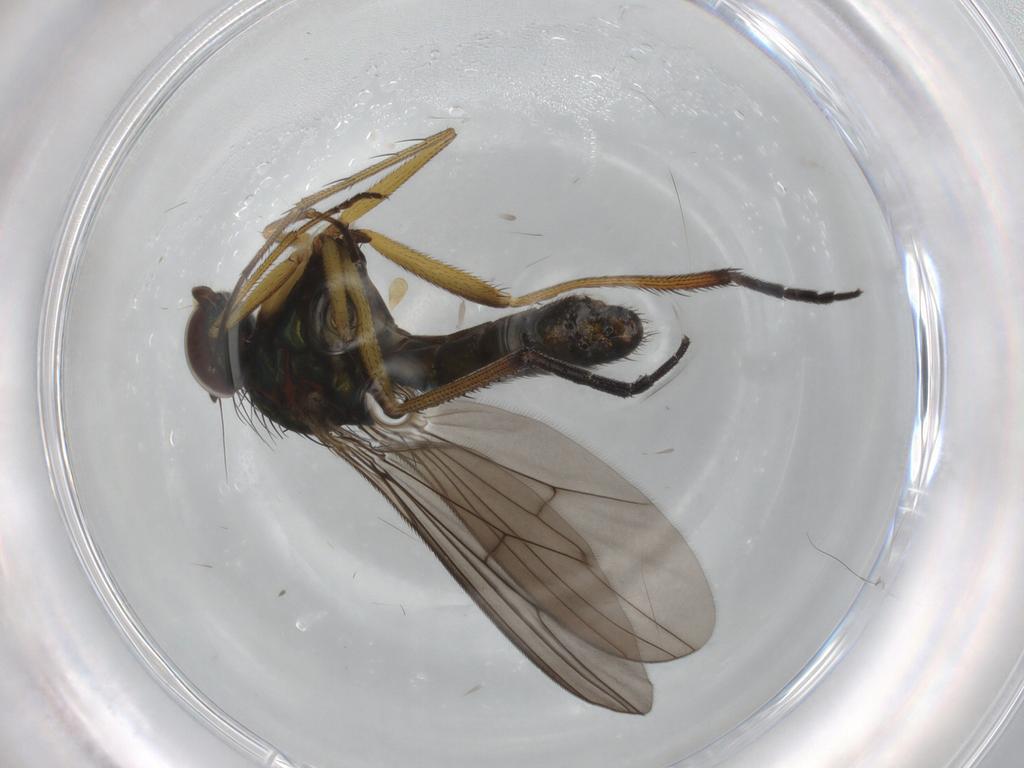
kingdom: Animalia
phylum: Arthropoda
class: Insecta
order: Diptera
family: Dolichopodidae
